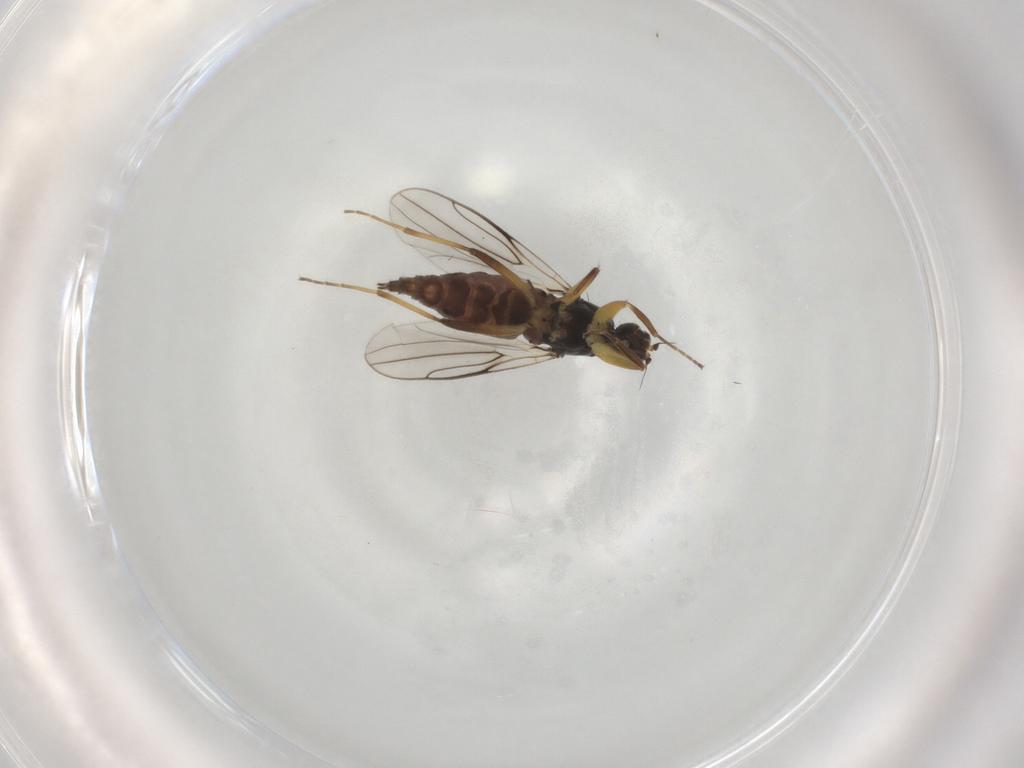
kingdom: Animalia
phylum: Arthropoda
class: Insecta
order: Diptera
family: Hybotidae
